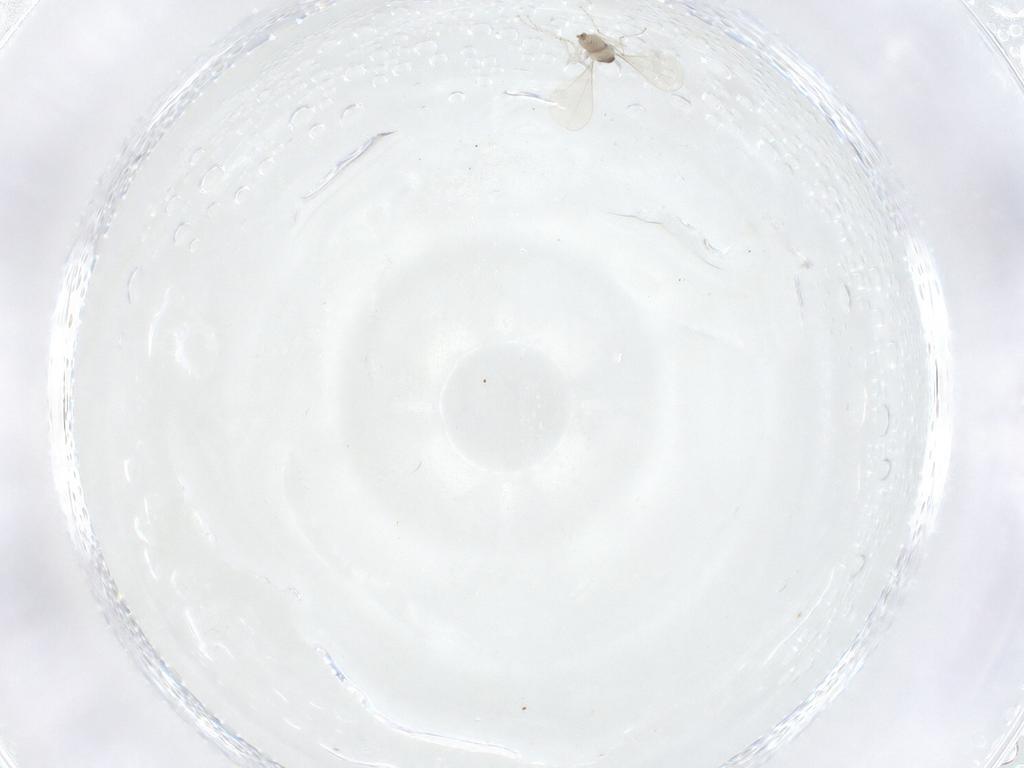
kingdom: Animalia
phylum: Arthropoda
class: Insecta
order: Diptera
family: Cecidomyiidae
